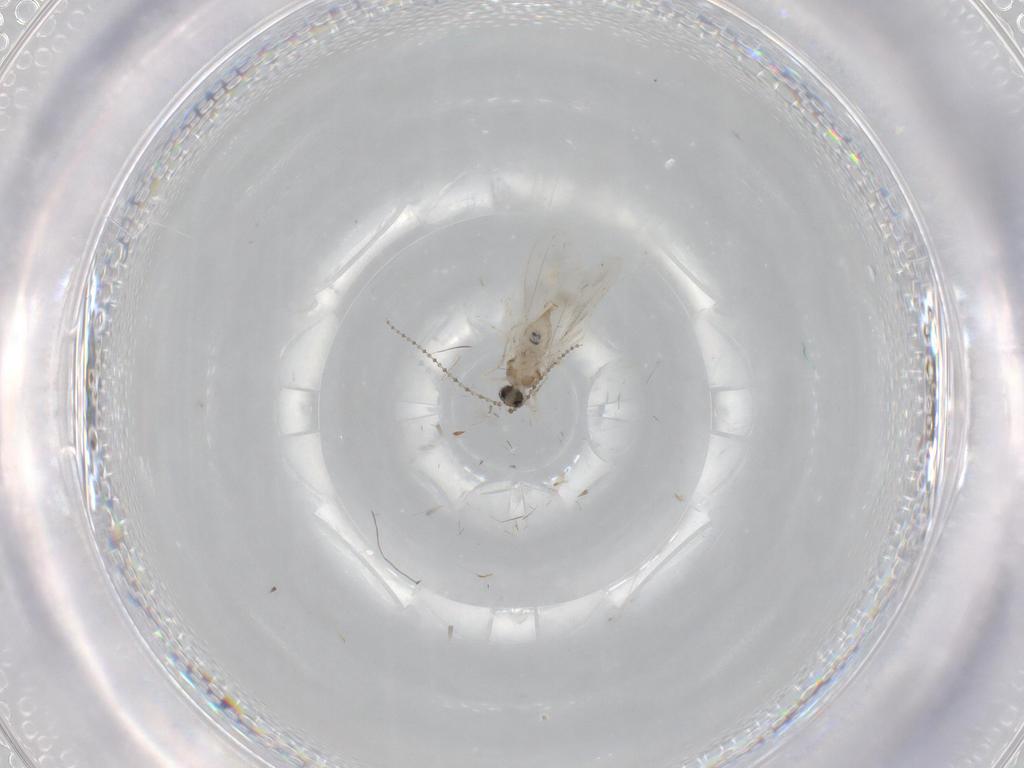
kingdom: Animalia
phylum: Arthropoda
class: Insecta
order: Diptera
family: Cecidomyiidae
